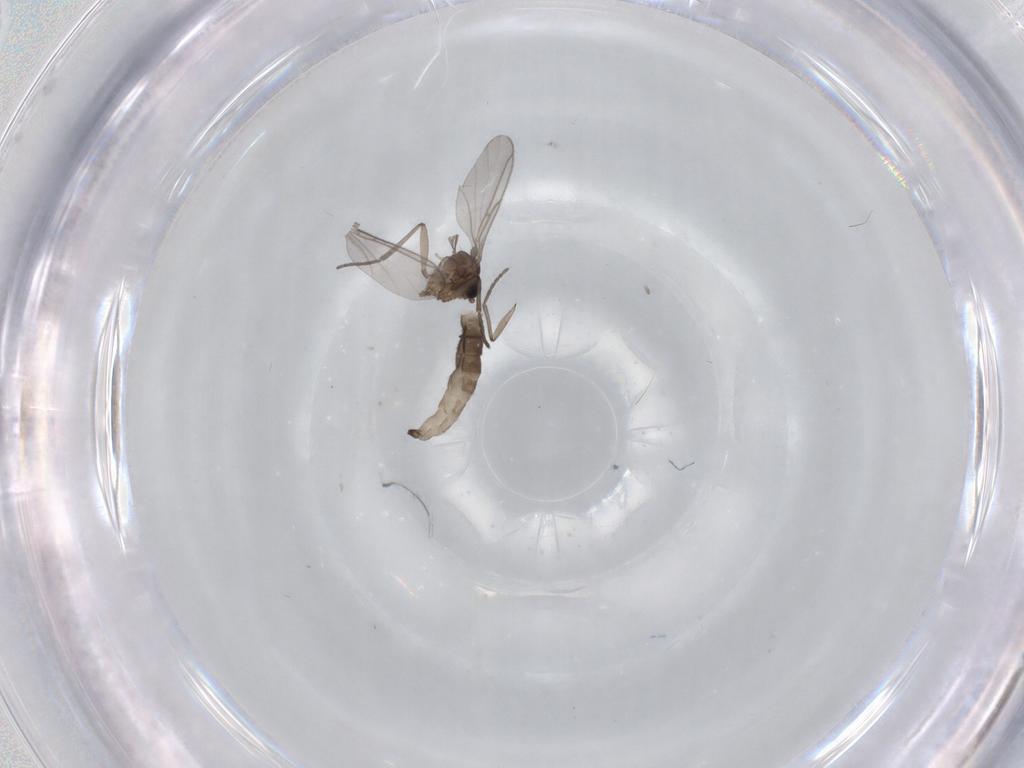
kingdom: Animalia
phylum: Arthropoda
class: Insecta
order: Diptera
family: Sciaridae
